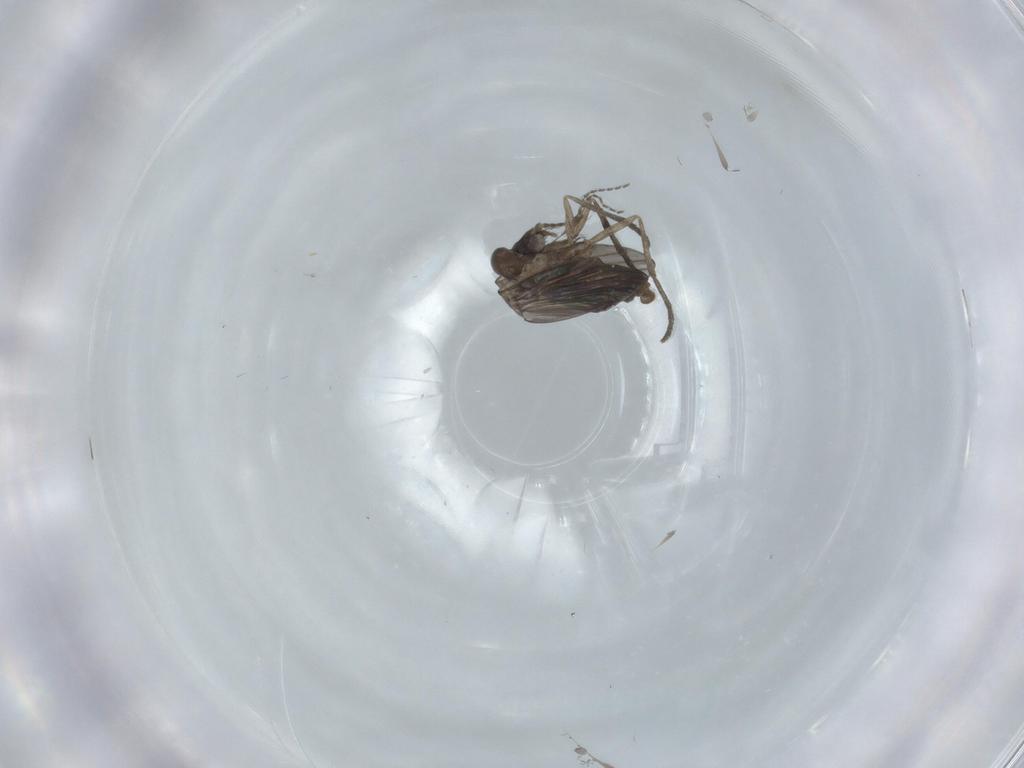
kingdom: Animalia
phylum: Arthropoda
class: Insecta
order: Diptera
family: Psychodidae
